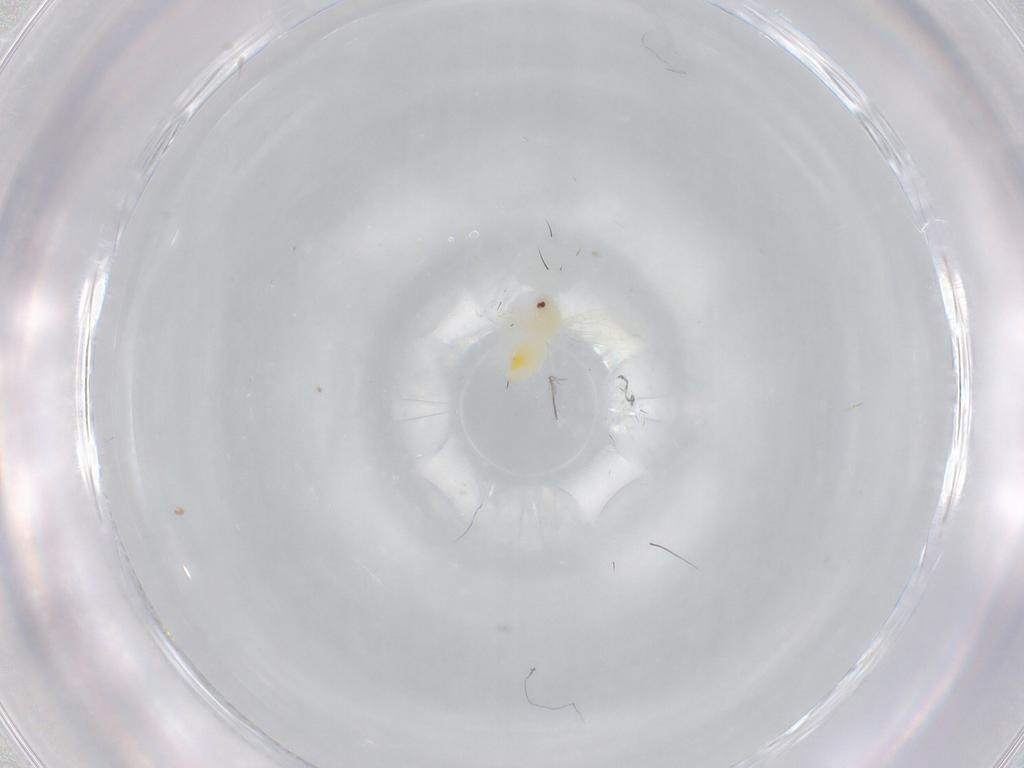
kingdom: Animalia
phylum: Arthropoda
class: Insecta
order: Hemiptera
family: Aleyrodidae
